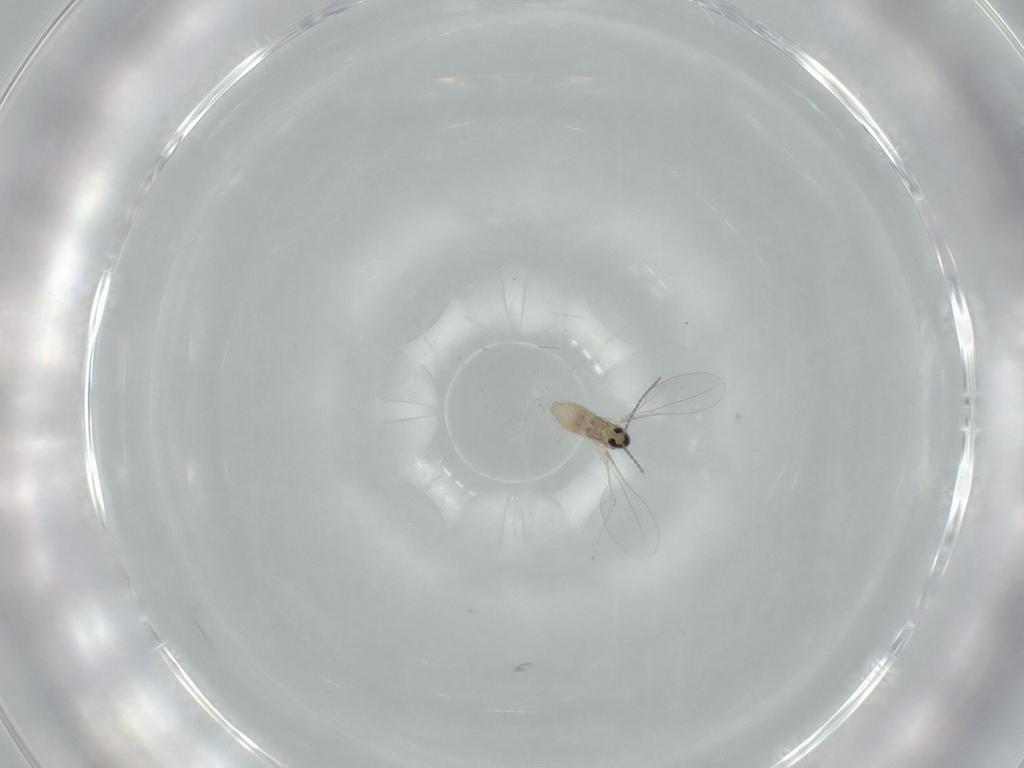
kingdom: Animalia
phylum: Arthropoda
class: Insecta
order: Diptera
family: Cecidomyiidae
